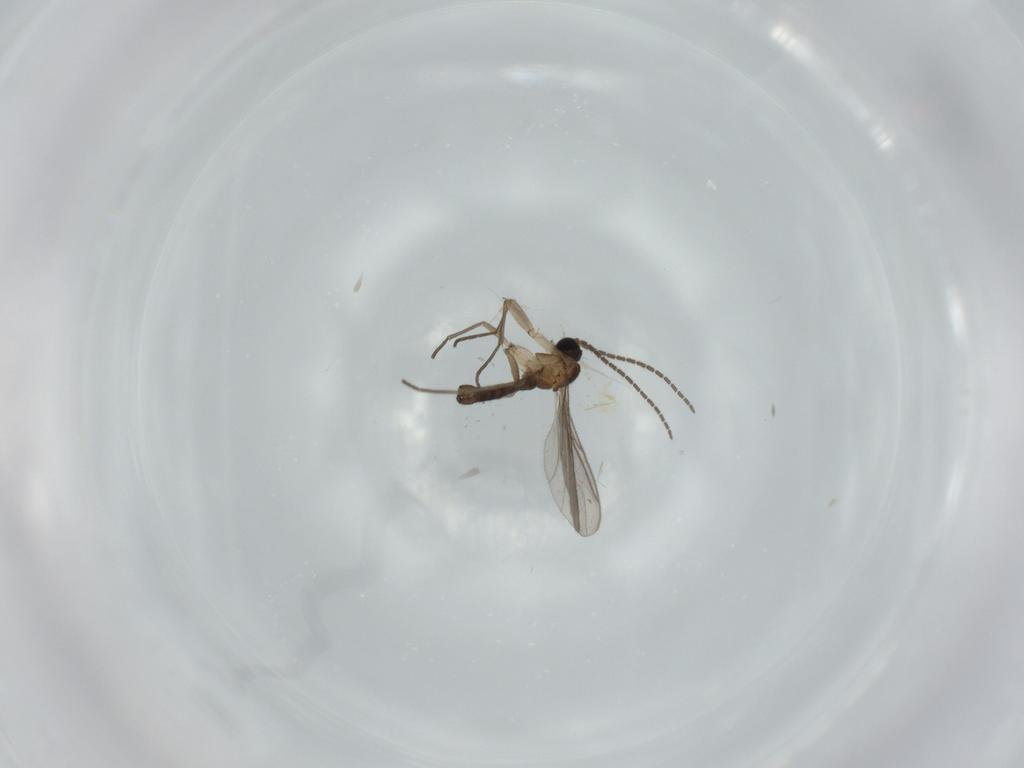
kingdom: Animalia
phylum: Arthropoda
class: Insecta
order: Diptera
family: Sciaridae
